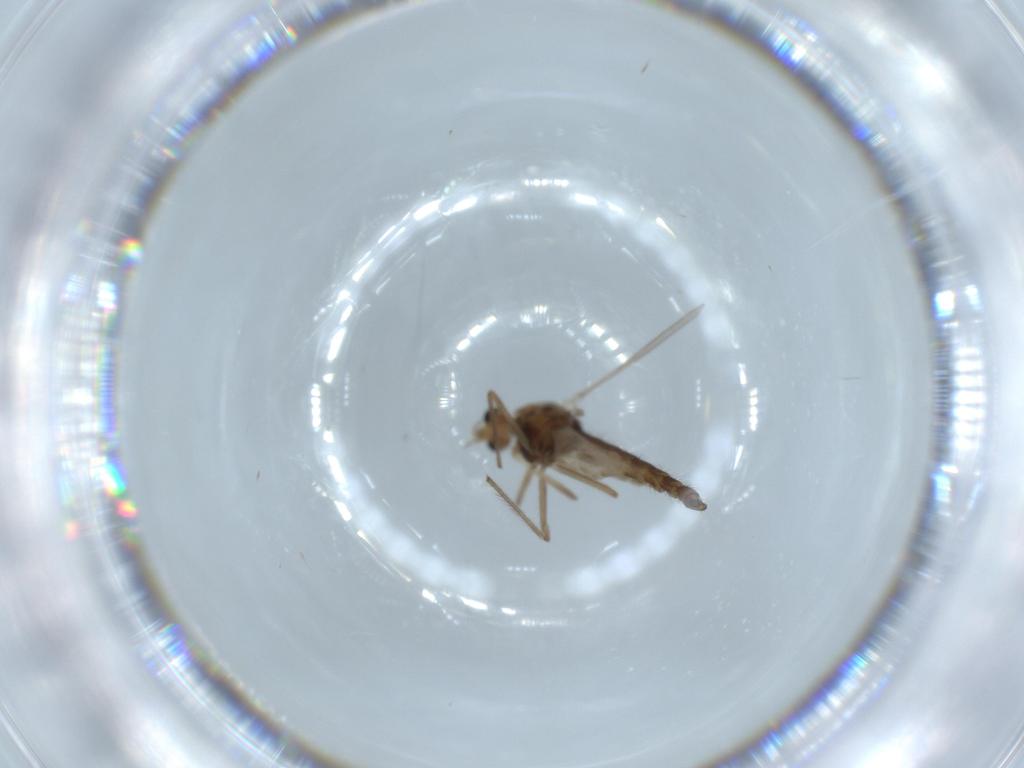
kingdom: Animalia
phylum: Arthropoda
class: Insecta
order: Diptera
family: Chironomidae
